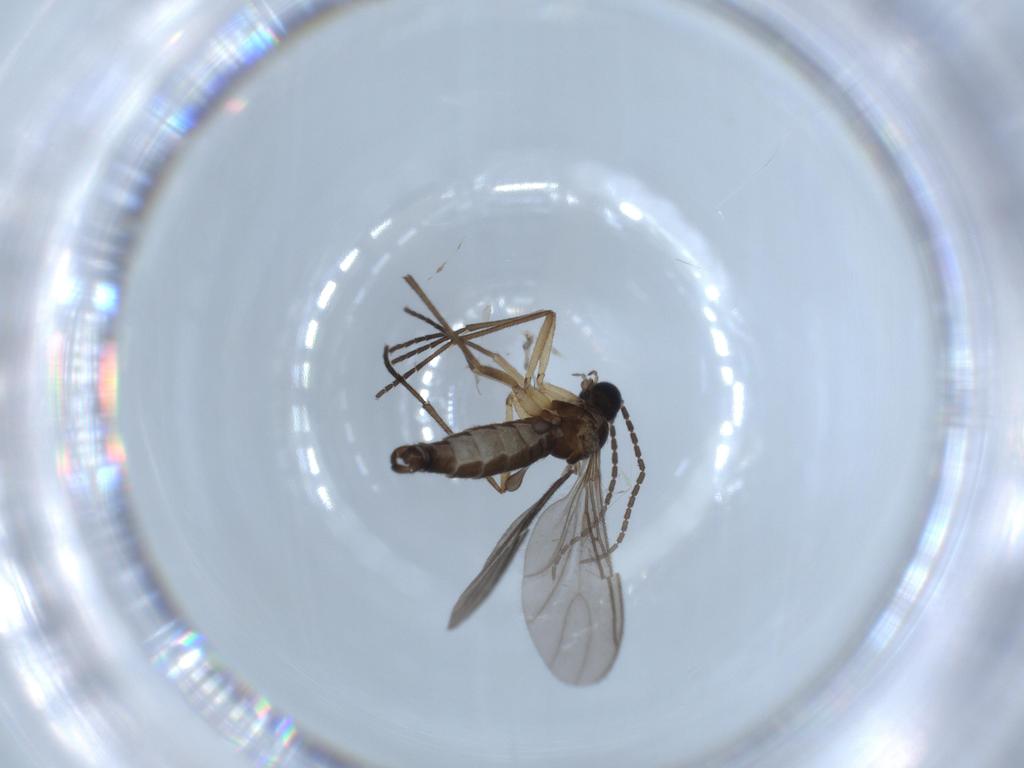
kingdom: Animalia
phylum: Arthropoda
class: Insecta
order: Diptera
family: Sciaridae
